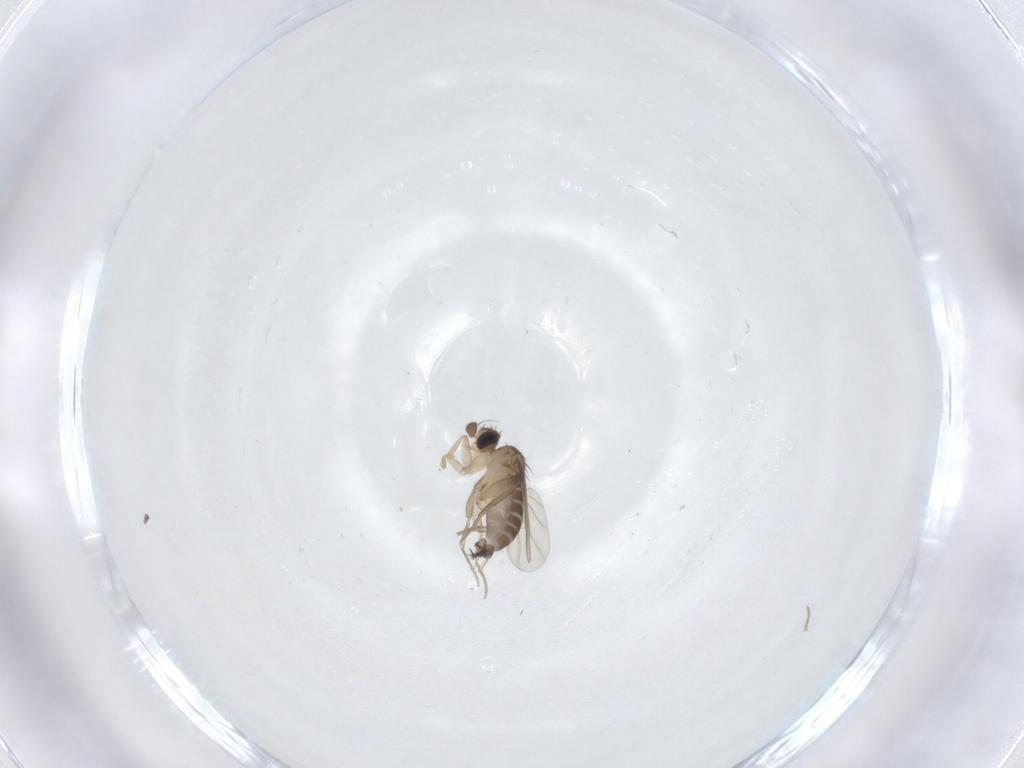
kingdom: Animalia
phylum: Arthropoda
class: Insecta
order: Diptera
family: Phoridae
